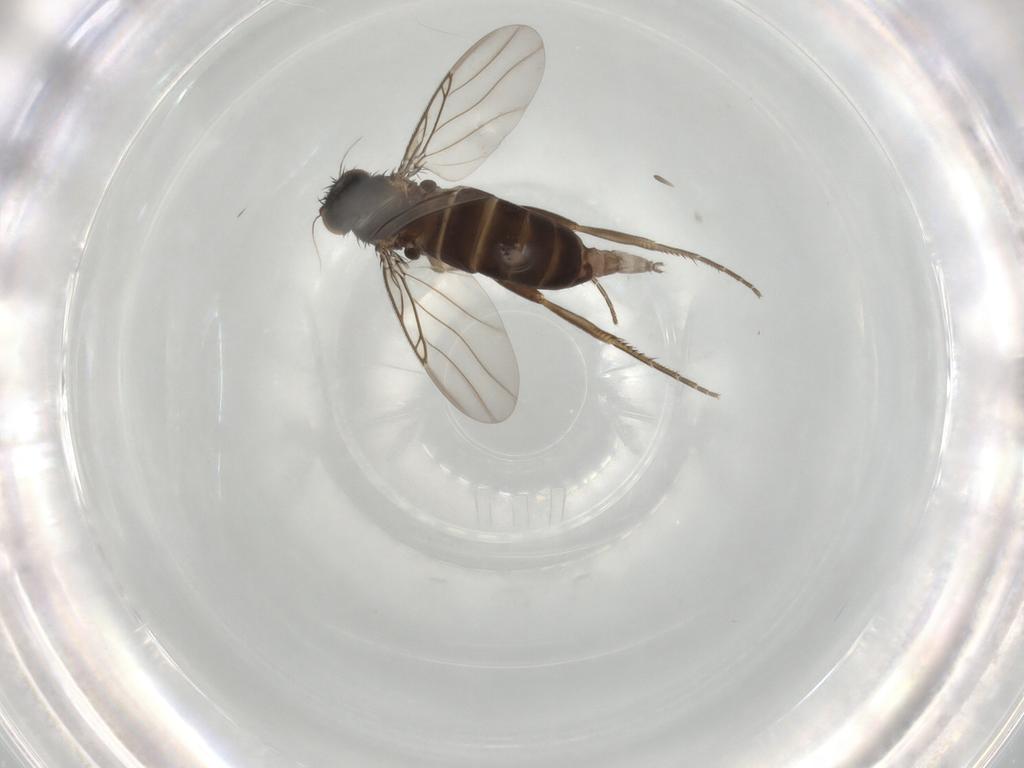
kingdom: Animalia
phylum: Arthropoda
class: Insecta
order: Diptera
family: Phoridae
